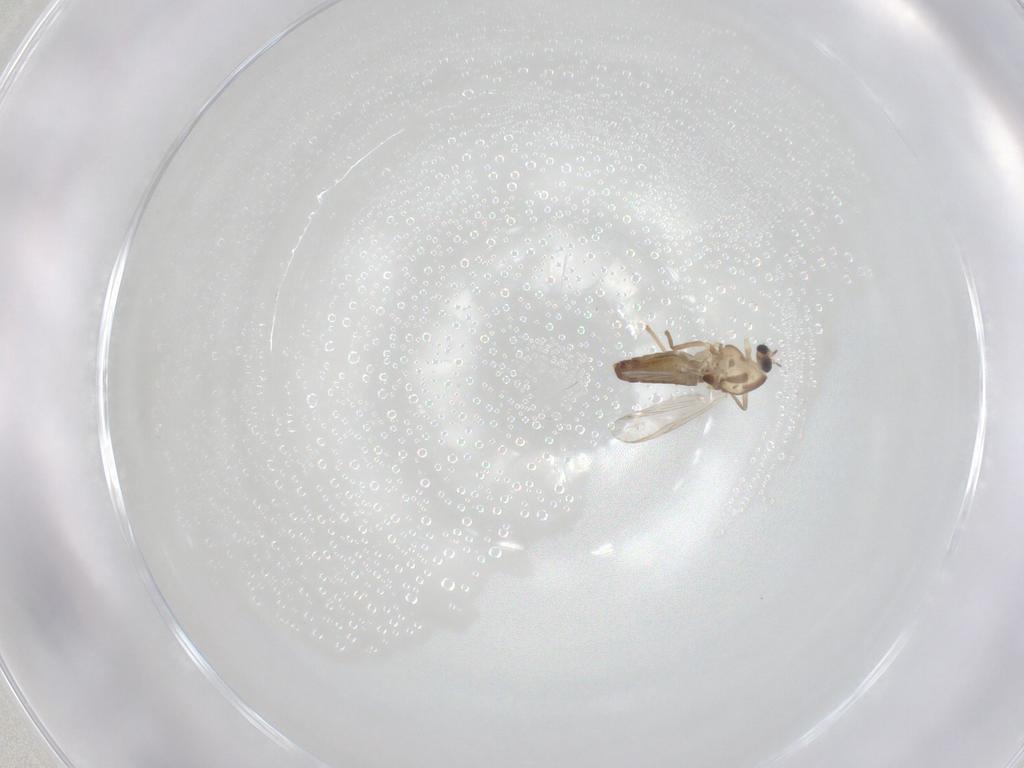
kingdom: Animalia
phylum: Arthropoda
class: Insecta
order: Diptera
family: Chironomidae
